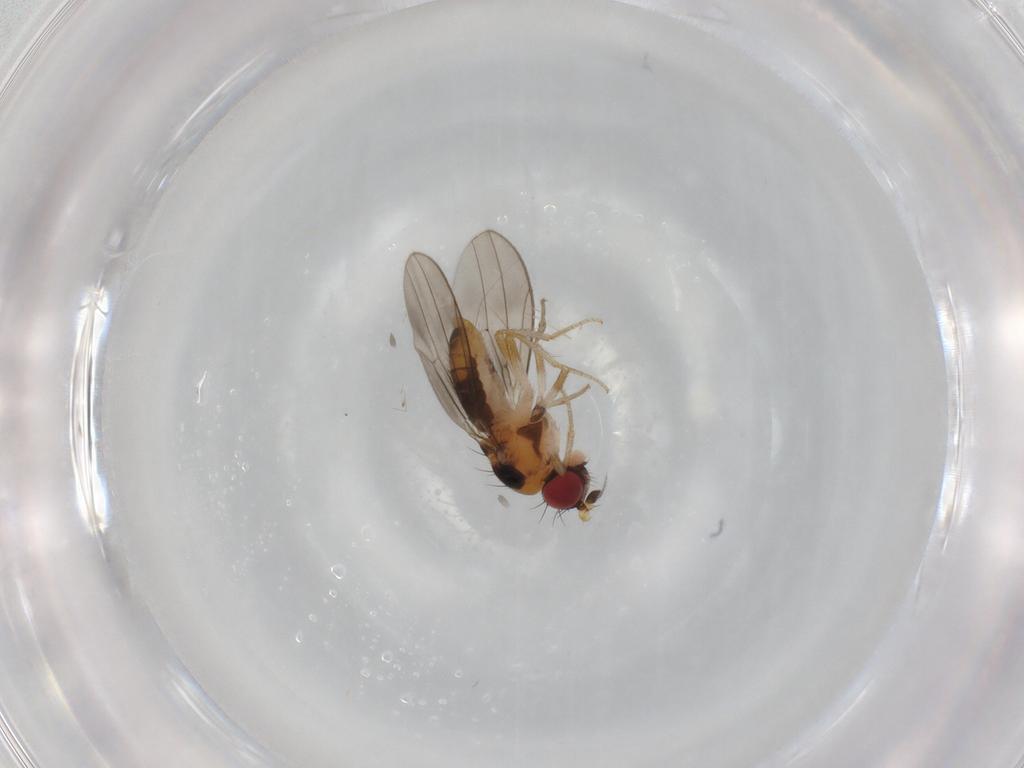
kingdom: Animalia
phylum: Arthropoda
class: Insecta
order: Diptera
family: Drosophilidae
